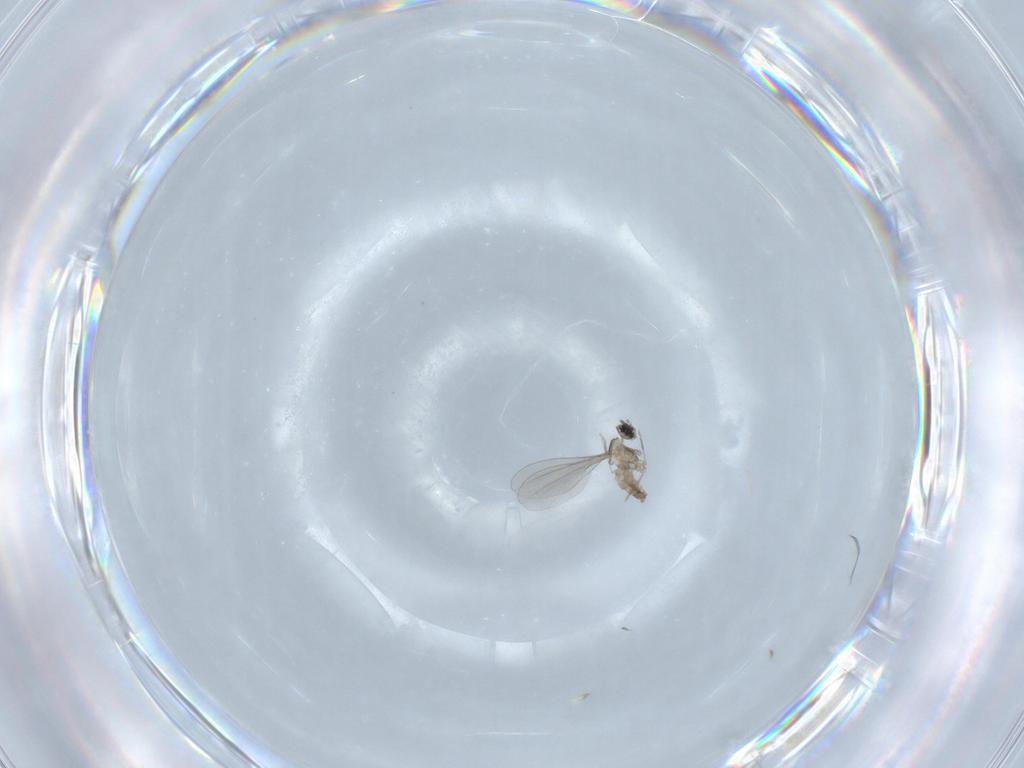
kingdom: Animalia
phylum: Arthropoda
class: Insecta
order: Diptera
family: Cecidomyiidae
